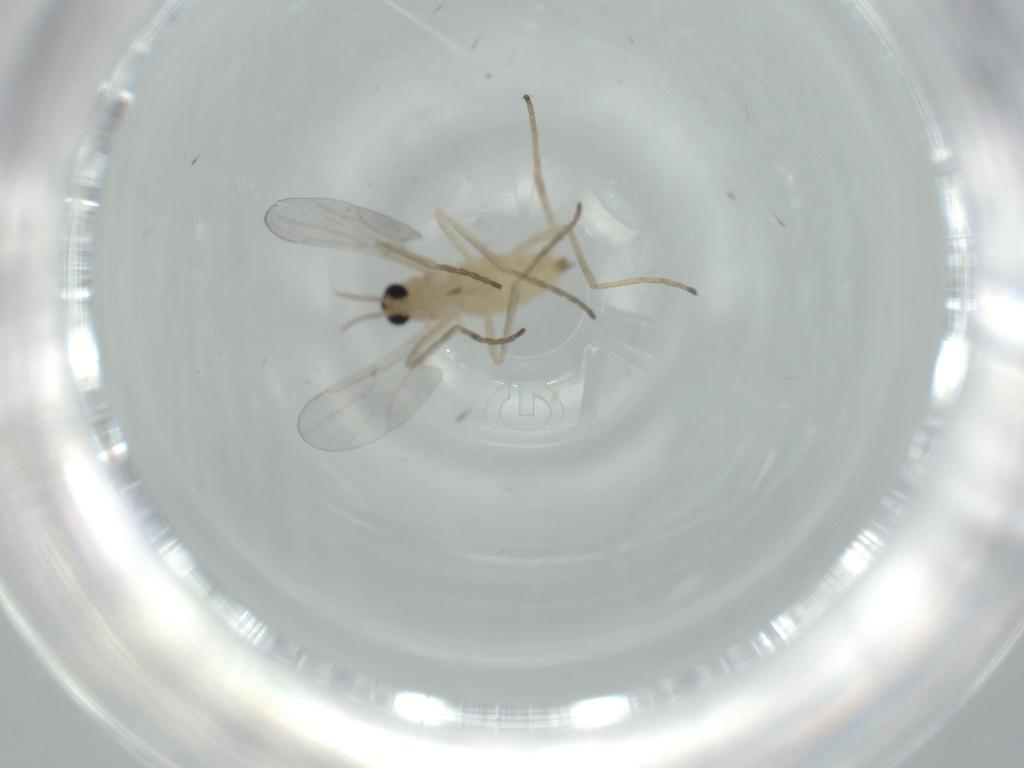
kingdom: Animalia
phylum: Arthropoda
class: Insecta
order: Diptera
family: Cecidomyiidae
